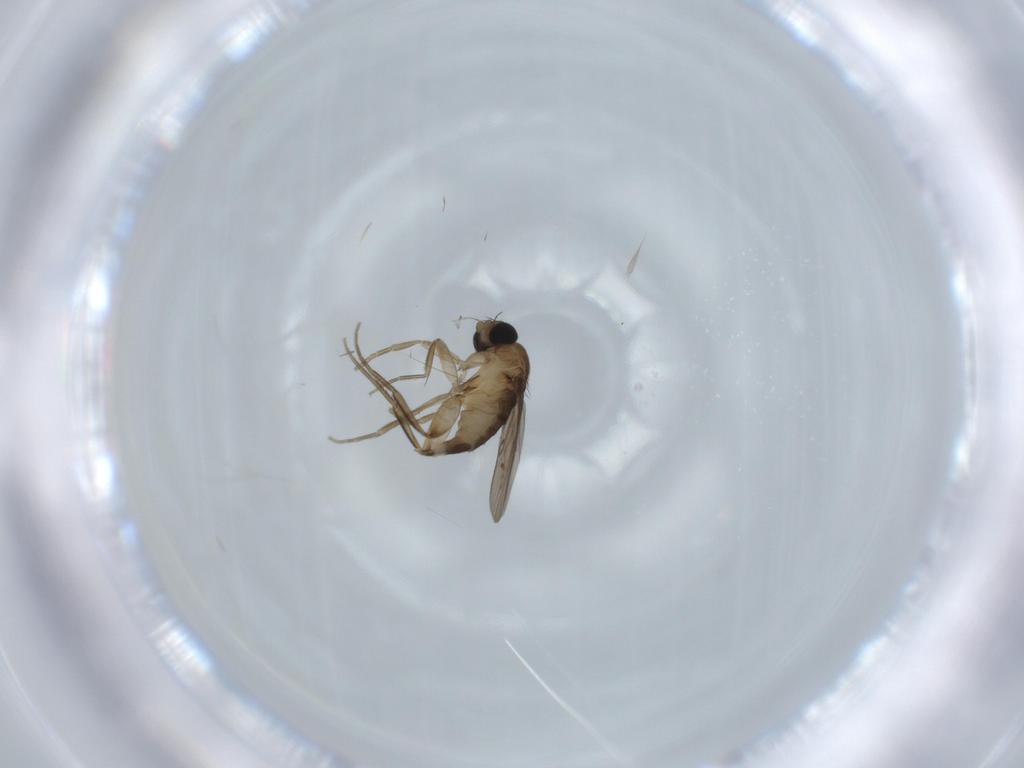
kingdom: Animalia
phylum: Arthropoda
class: Insecta
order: Diptera
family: Phoridae
